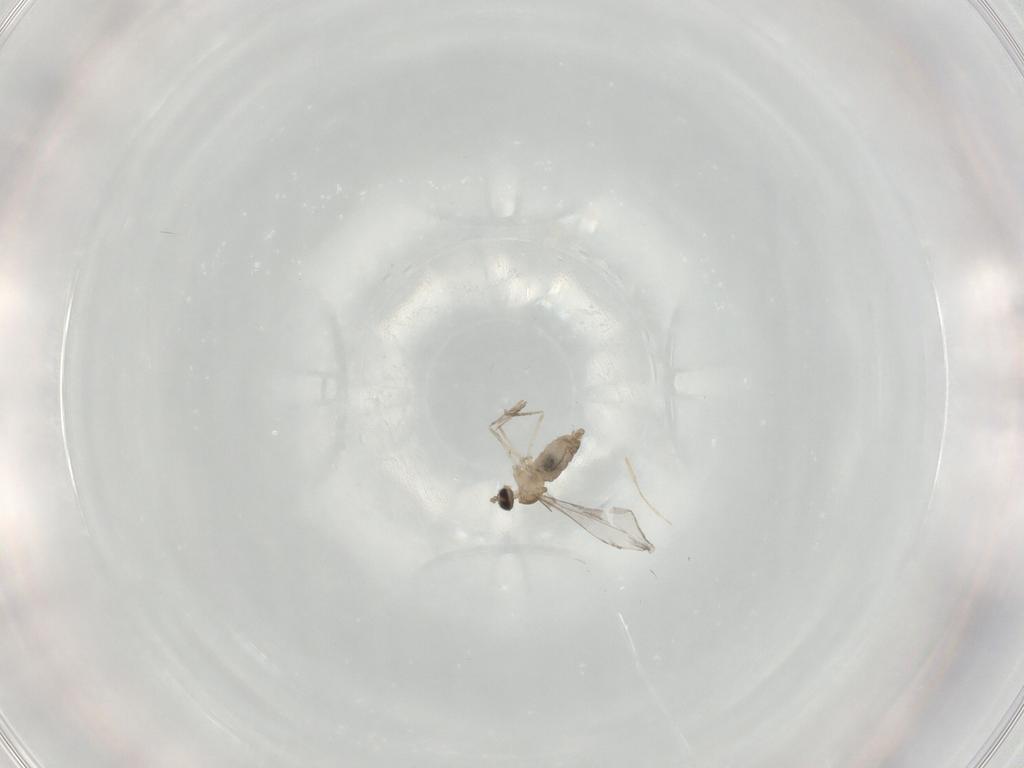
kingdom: Animalia
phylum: Arthropoda
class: Insecta
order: Diptera
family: Cecidomyiidae
